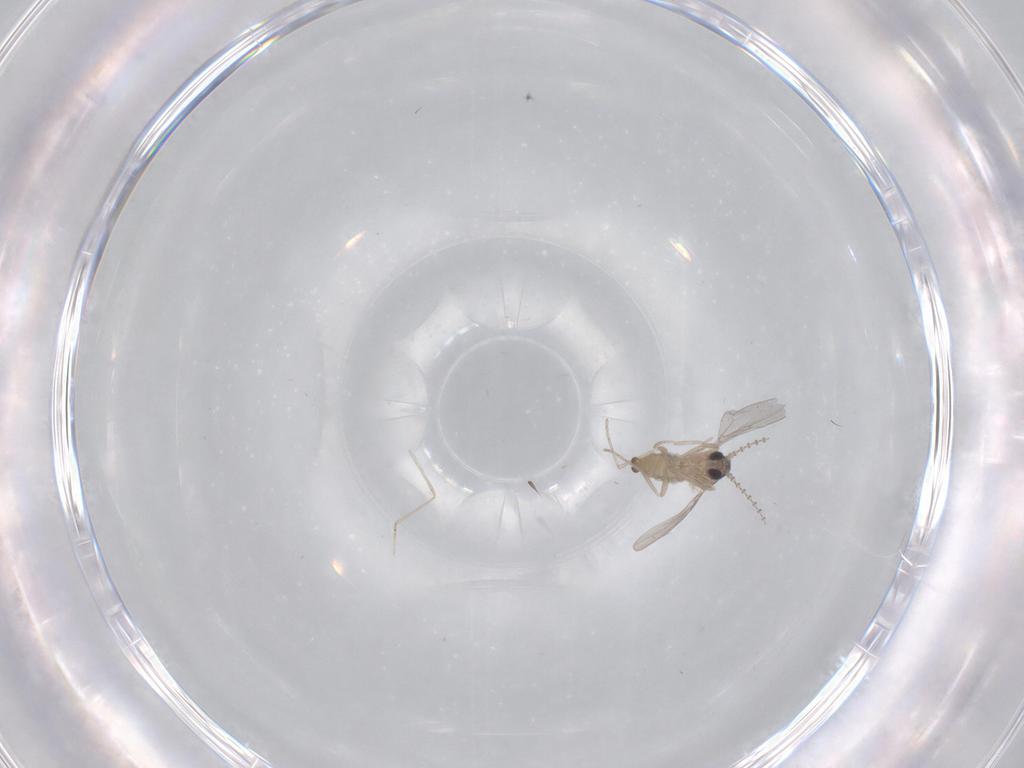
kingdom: Animalia
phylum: Arthropoda
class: Insecta
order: Diptera
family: Cecidomyiidae
